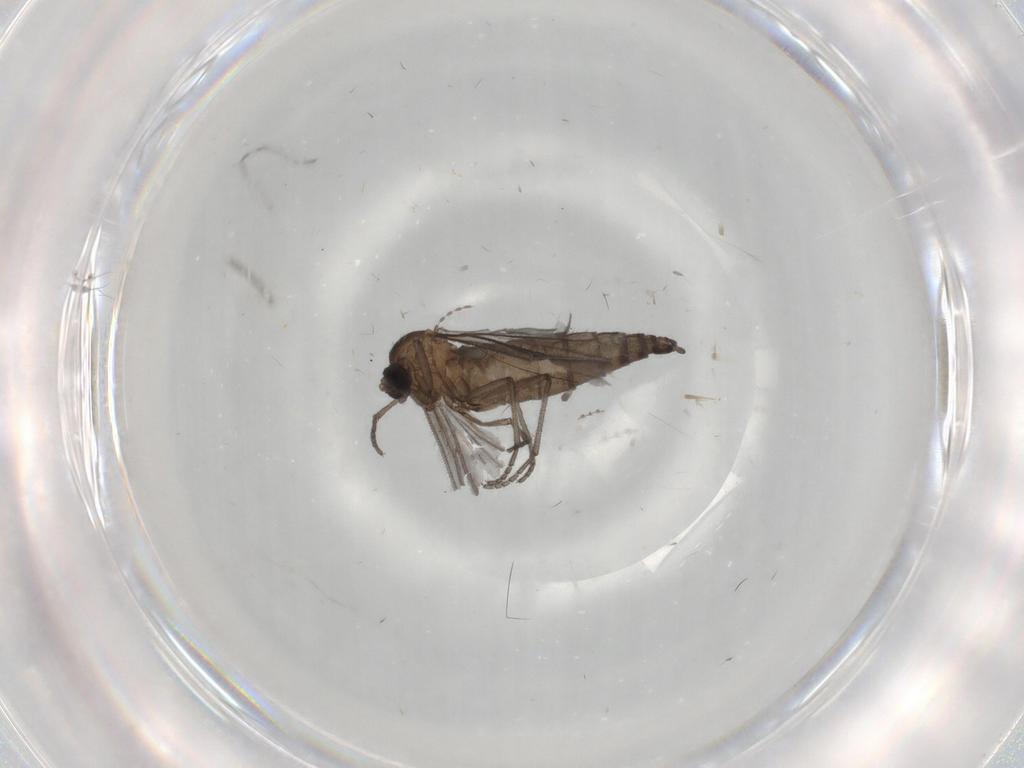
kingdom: Animalia
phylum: Arthropoda
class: Insecta
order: Diptera
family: Sciaridae
